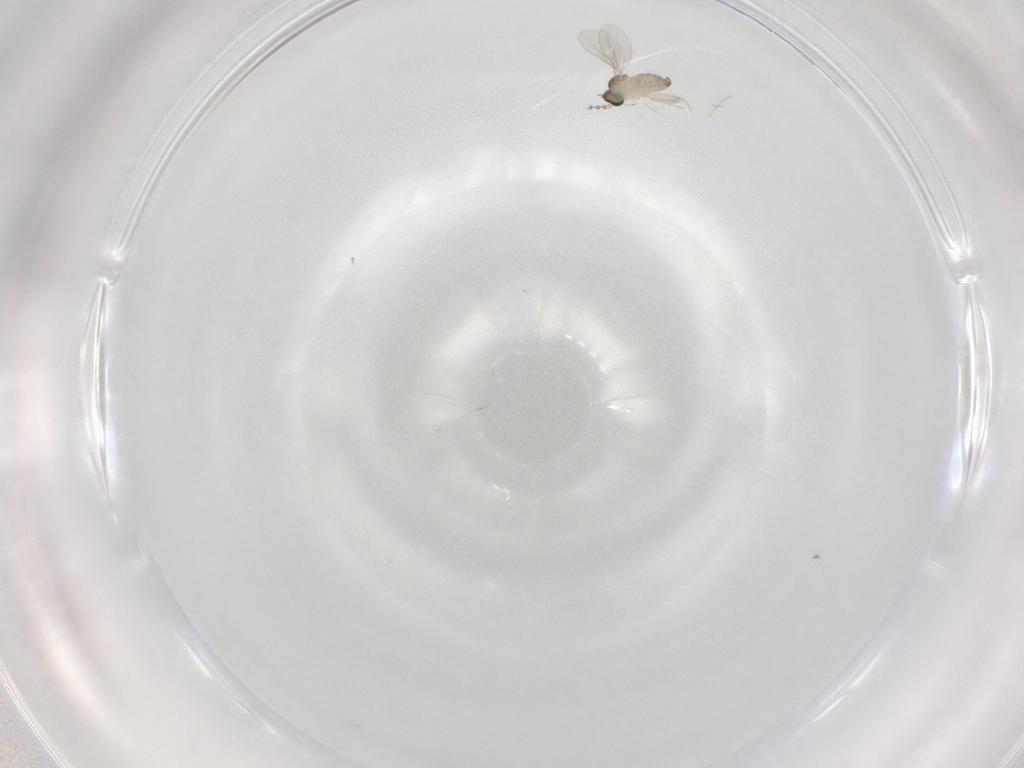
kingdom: Animalia
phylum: Arthropoda
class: Insecta
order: Diptera
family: Cecidomyiidae
